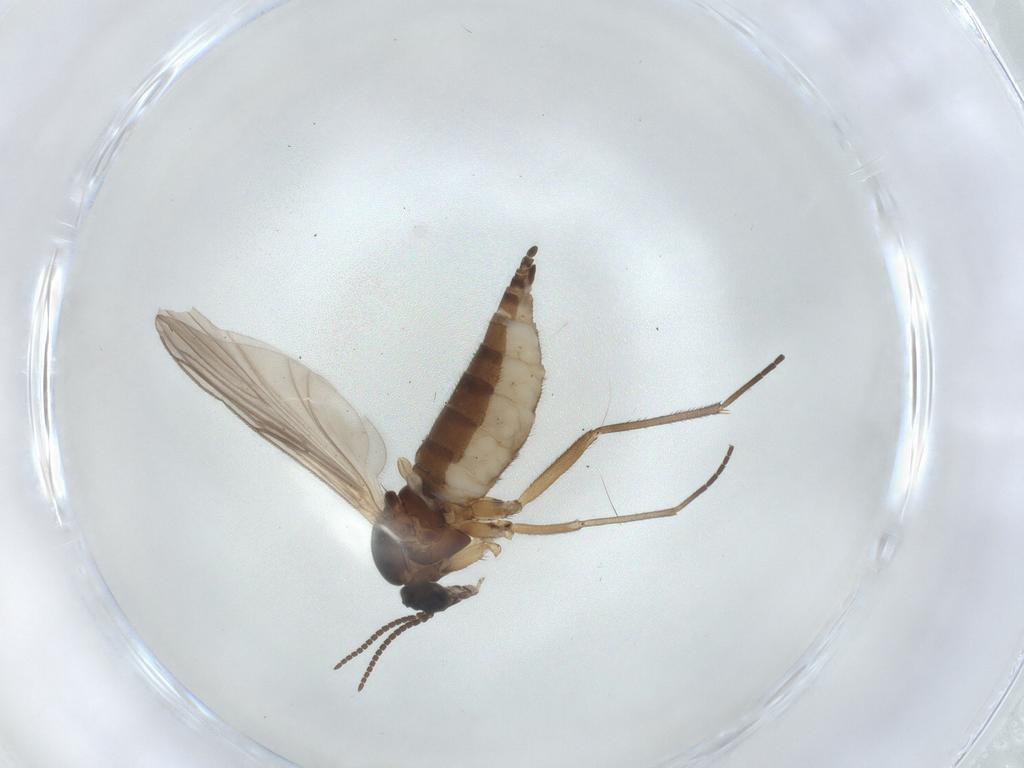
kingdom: Animalia
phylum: Arthropoda
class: Insecta
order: Diptera
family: Sciaridae
